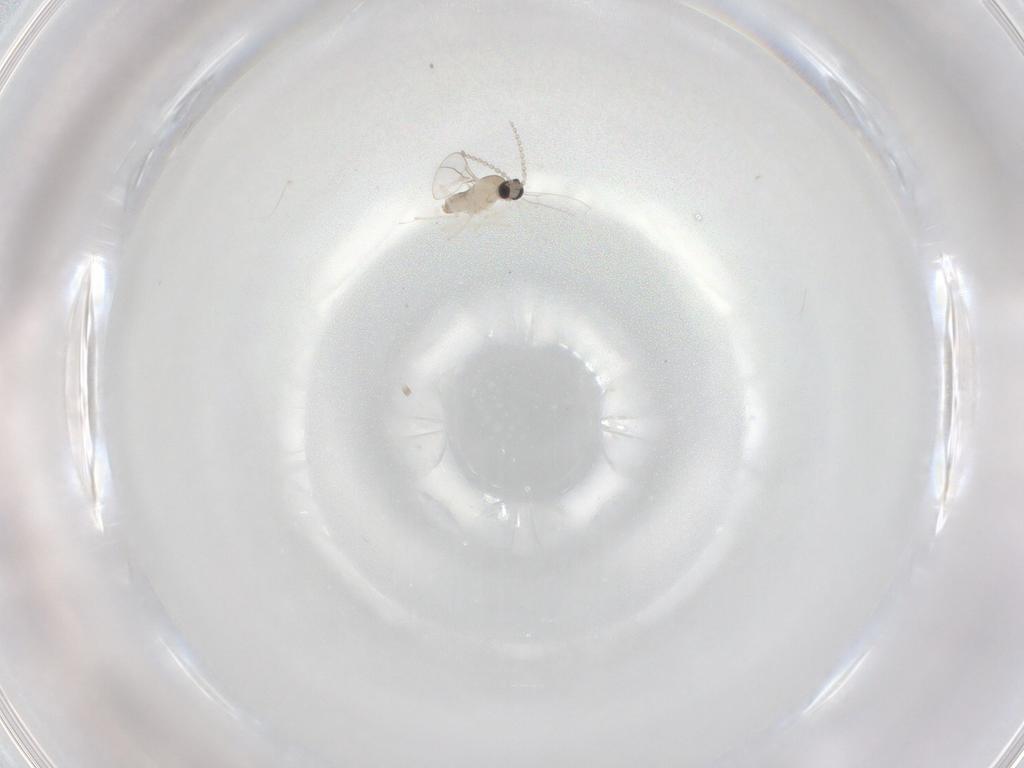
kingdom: Animalia
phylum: Arthropoda
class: Insecta
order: Diptera
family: Cecidomyiidae
